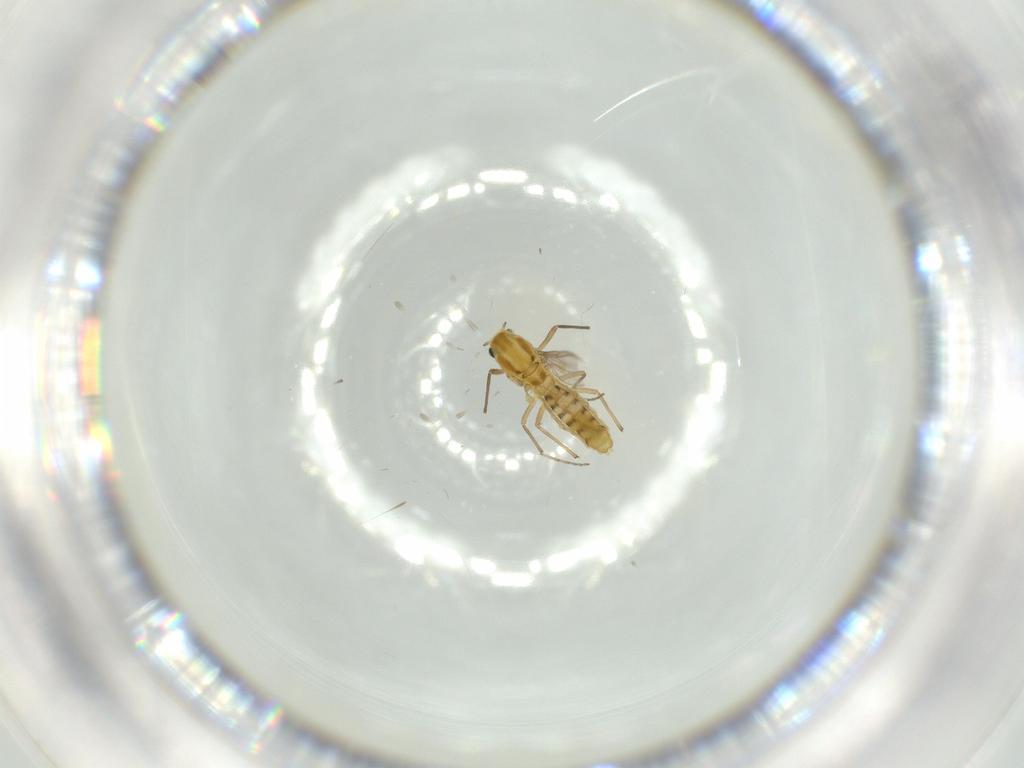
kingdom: Animalia
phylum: Arthropoda
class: Insecta
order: Diptera
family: Chironomidae
